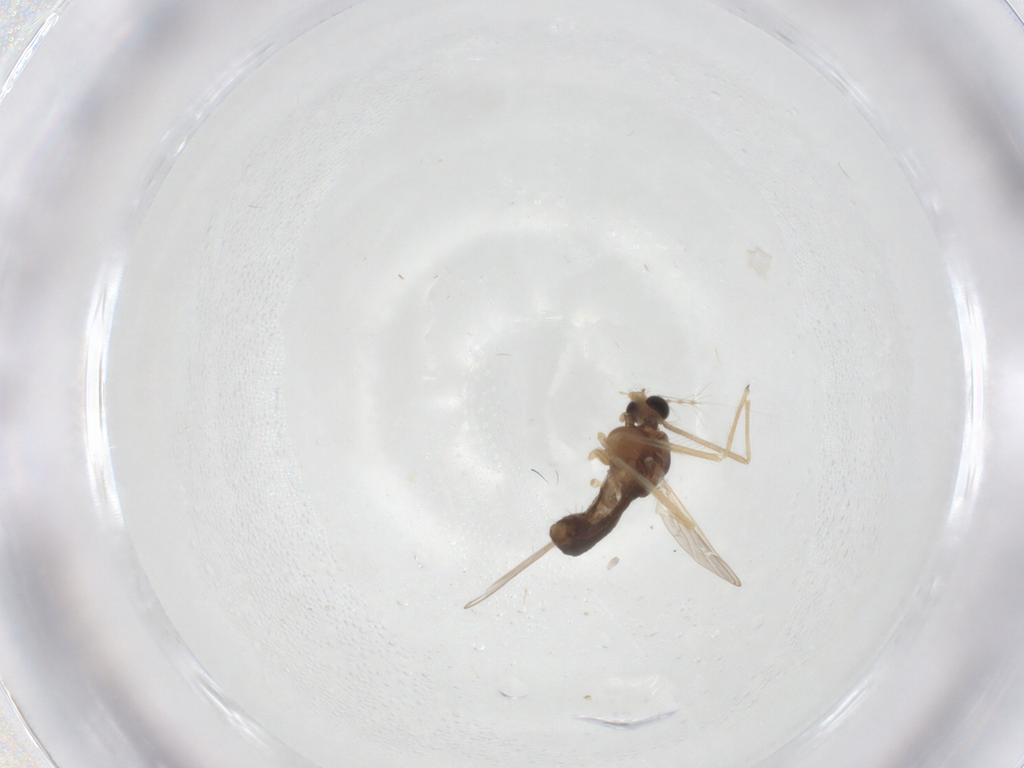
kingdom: Animalia
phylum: Arthropoda
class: Insecta
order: Diptera
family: Chironomidae
